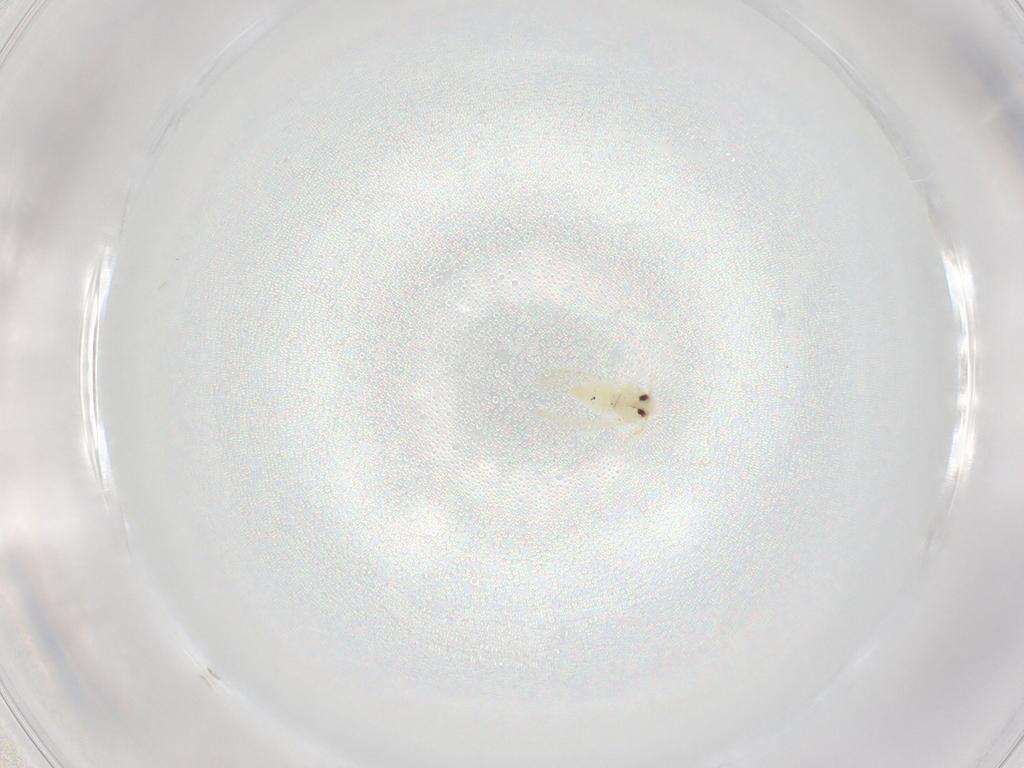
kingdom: Animalia
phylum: Arthropoda
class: Insecta
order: Hemiptera
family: Aleyrodidae
